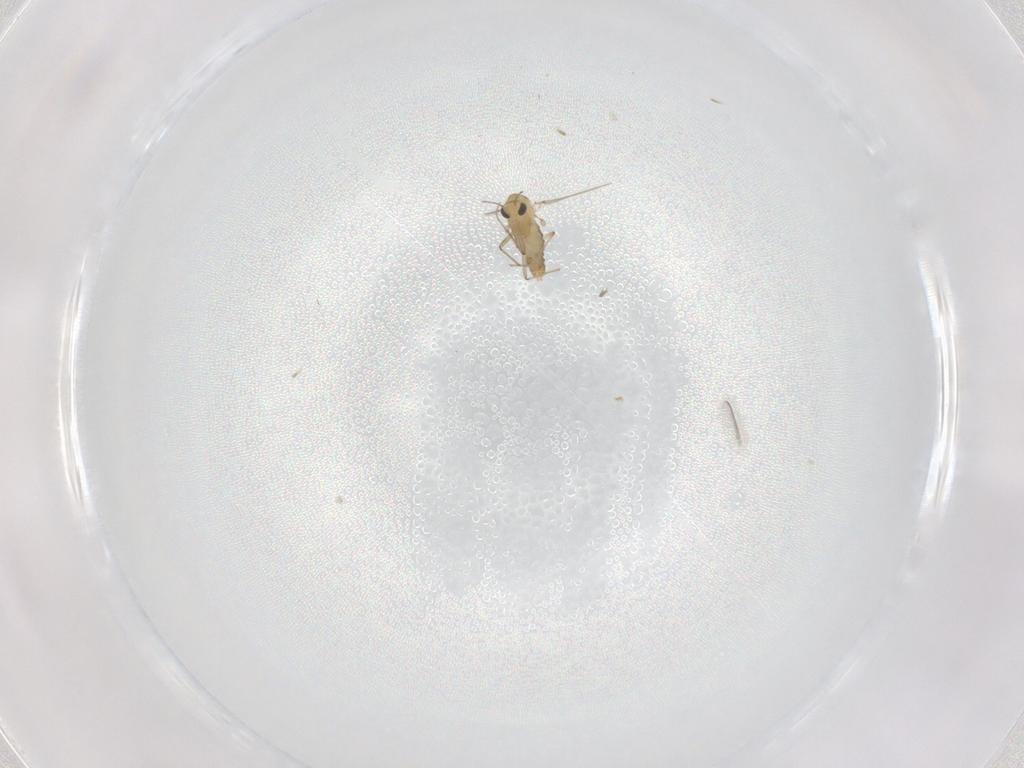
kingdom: Animalia
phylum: Arthropoda
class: Insecta
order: Diptera
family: Chironomidae
